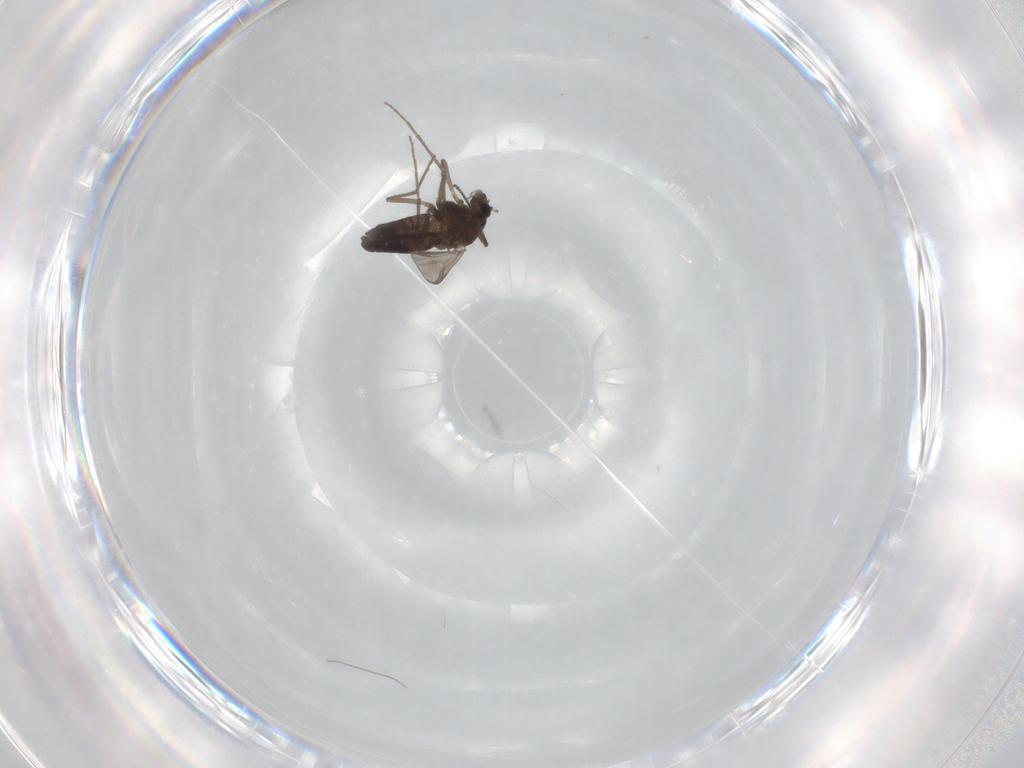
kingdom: Animalia
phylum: Arthropoda
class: Insecta
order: Diptera
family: Chironomidae
